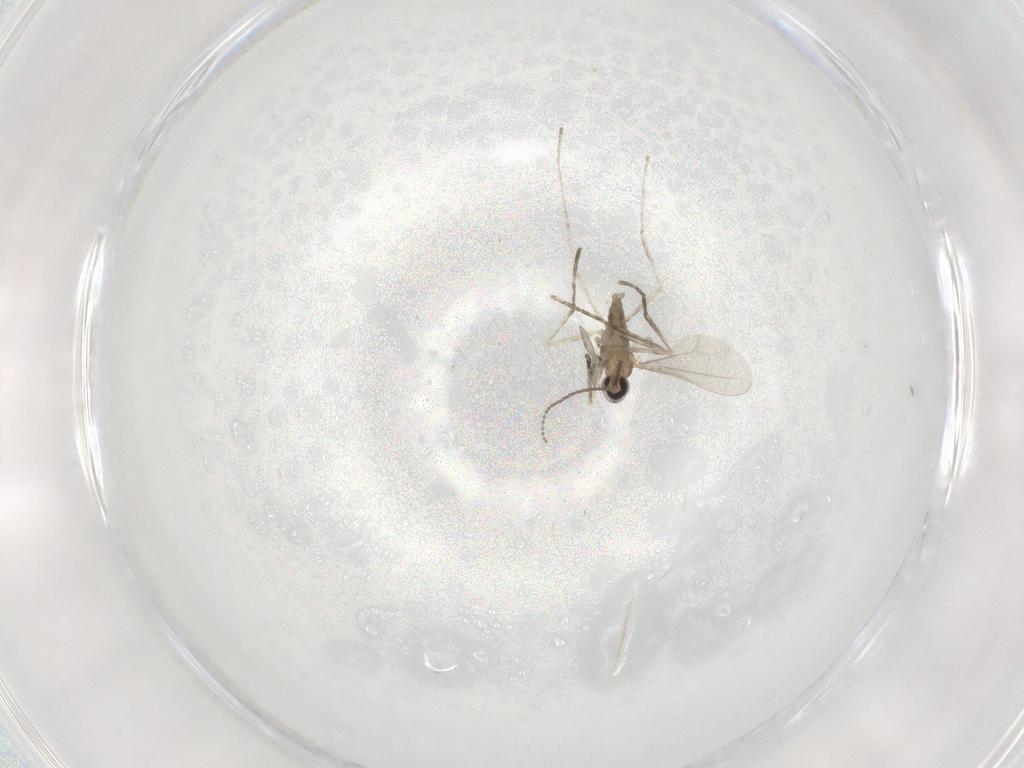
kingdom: Animalia
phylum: Arthropoda
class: Insecta
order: Diptera
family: Cecidomyiidae
